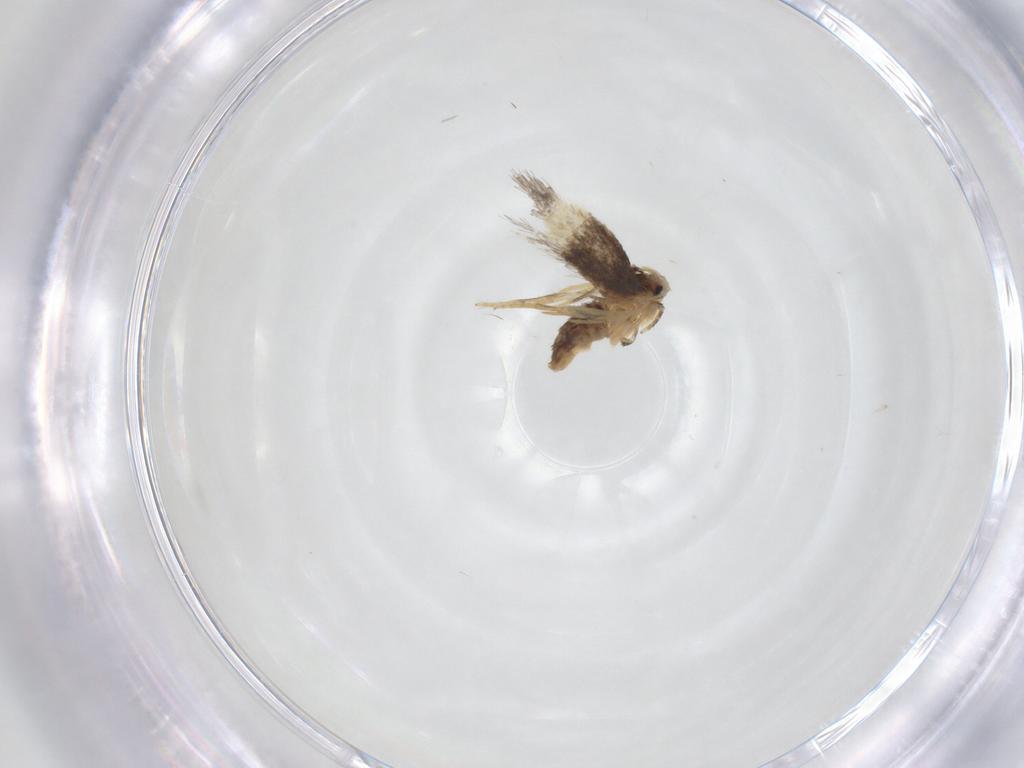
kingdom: Animalia
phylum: Arthropoda
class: Insecta
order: Lepidoptera
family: Nepticulidae
